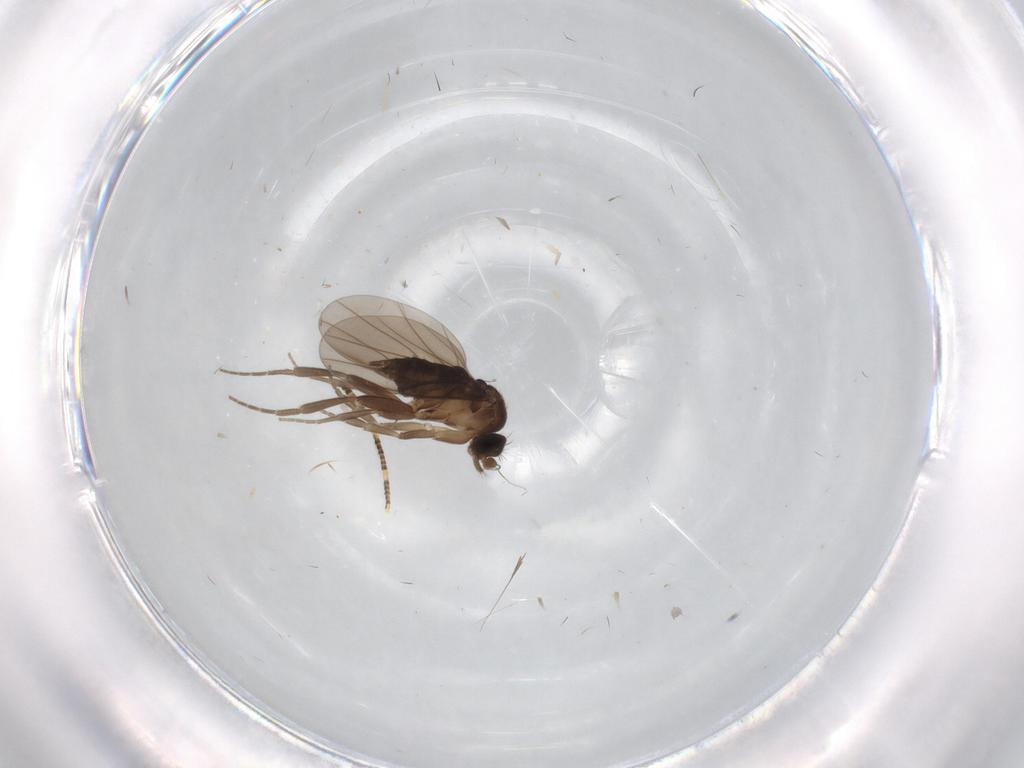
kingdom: Animalia
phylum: Arthropoda
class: Insecta
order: Diptera
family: Phoridae
